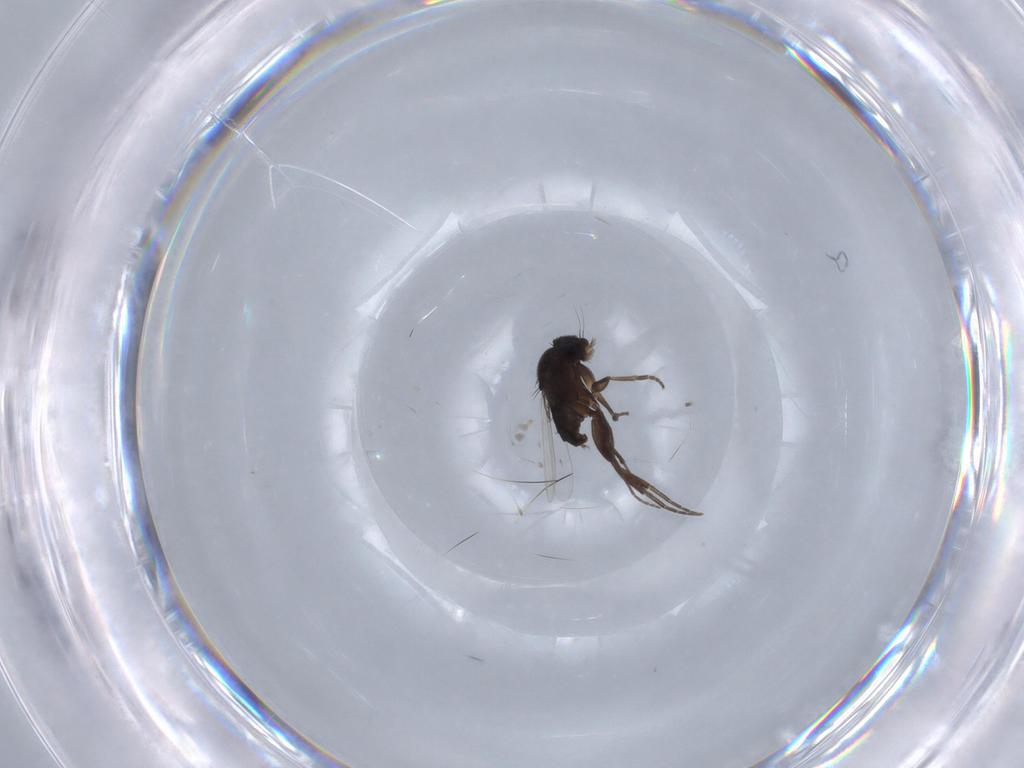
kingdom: Animalia
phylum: Arthropoda
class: Insecta
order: Diptera
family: Phoridae
